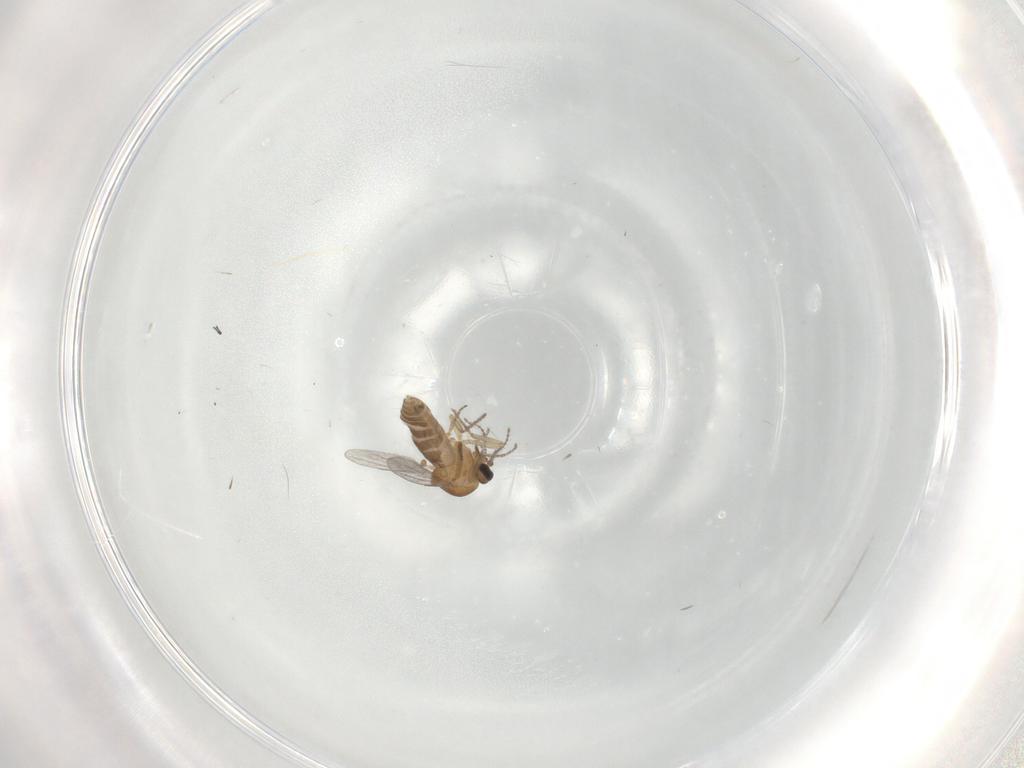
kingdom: Animalia
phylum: Arthropoda
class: Insecta
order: Diptera
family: Ceratopogonidae
